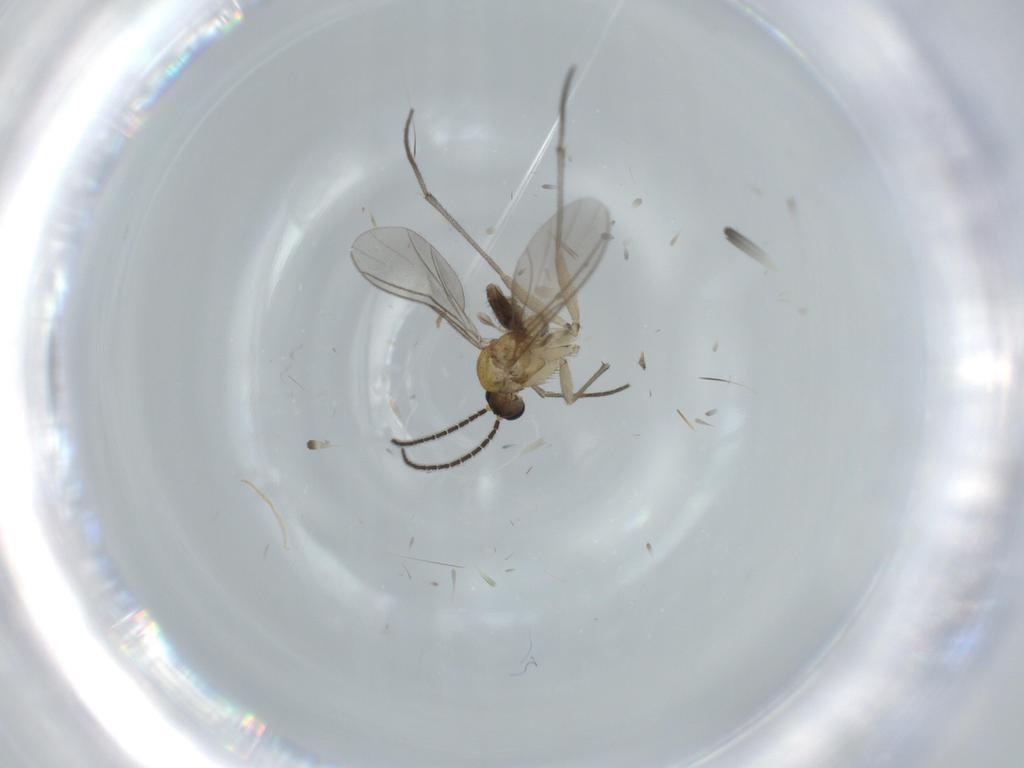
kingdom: Animalia
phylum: Arthropoda
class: Insecta
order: Diptera
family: Sciaridae
